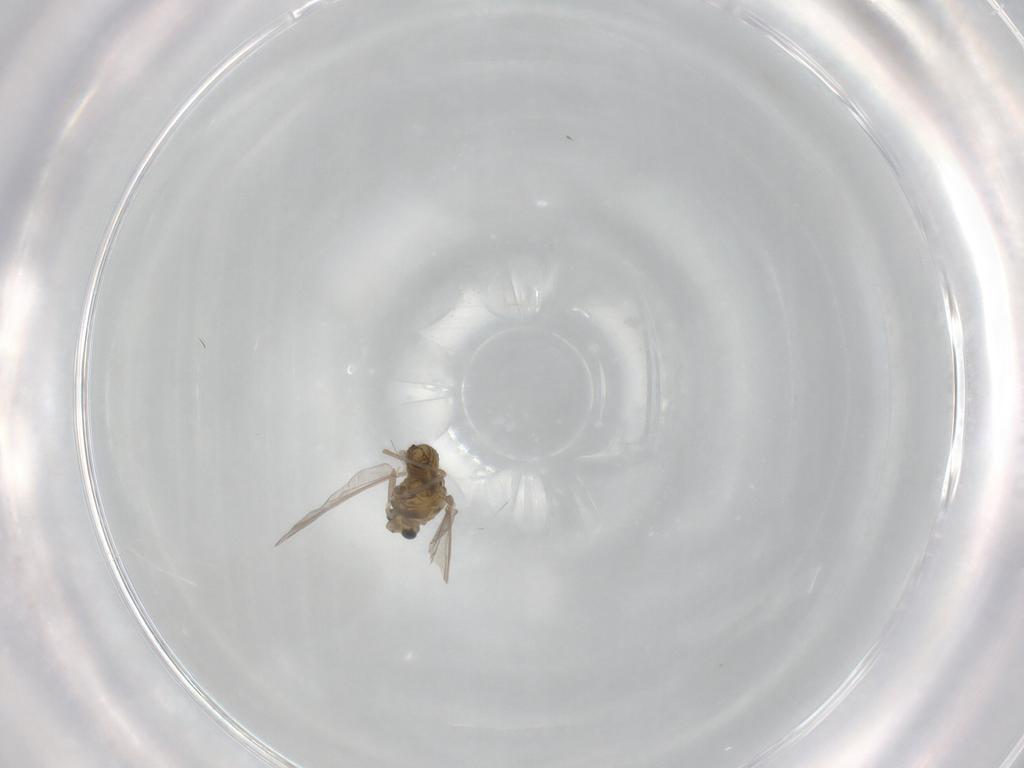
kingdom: Animalia
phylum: Arthropoda
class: Insecta
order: Diptera
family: Chironomidae
